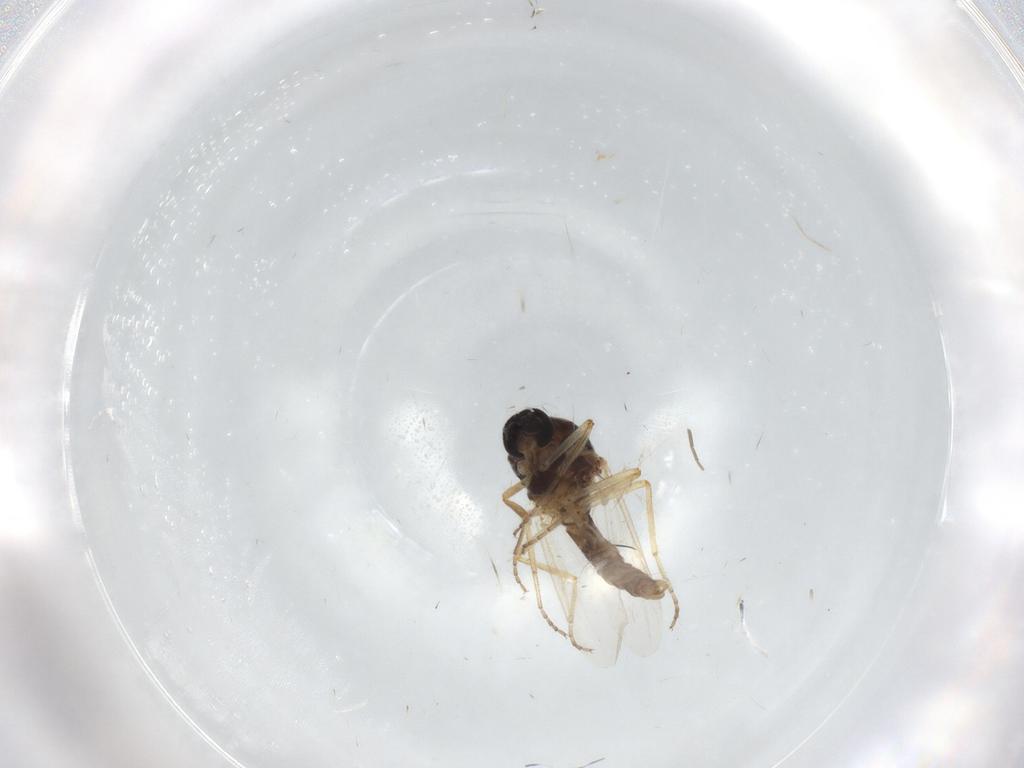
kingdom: Animalia
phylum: Arthropoda
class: Insecta
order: Diptera
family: Ceratopogonidae
